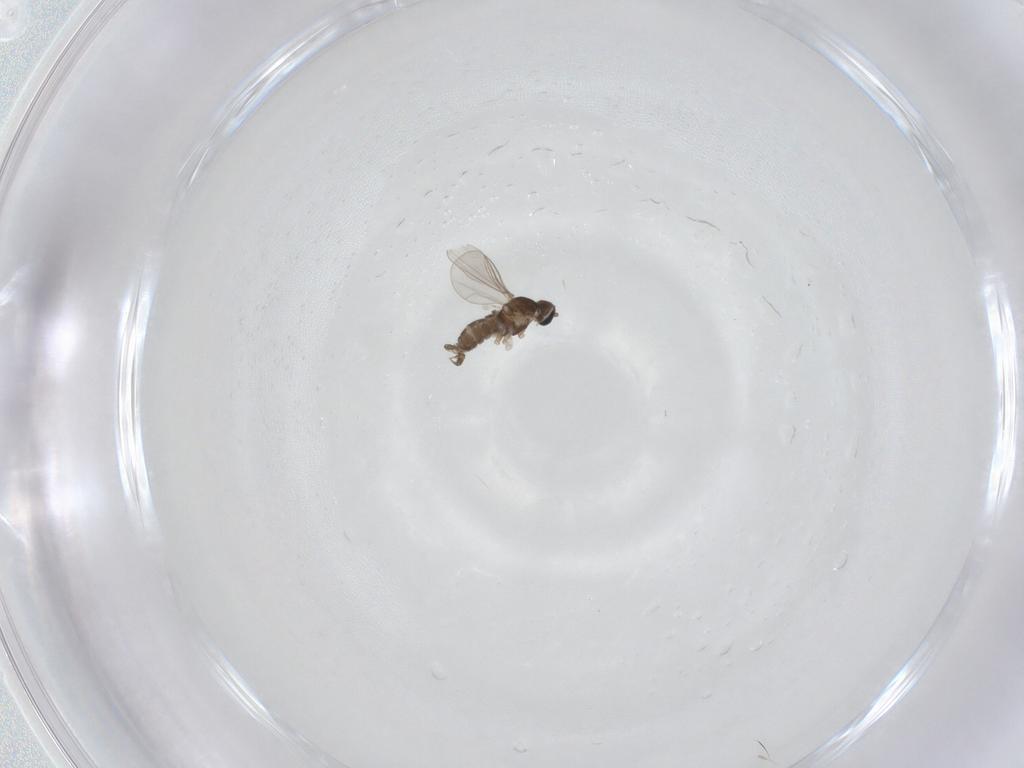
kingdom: Animalia
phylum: Arthropoda
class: Insecta
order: Diptera
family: Cecidomyiidae
